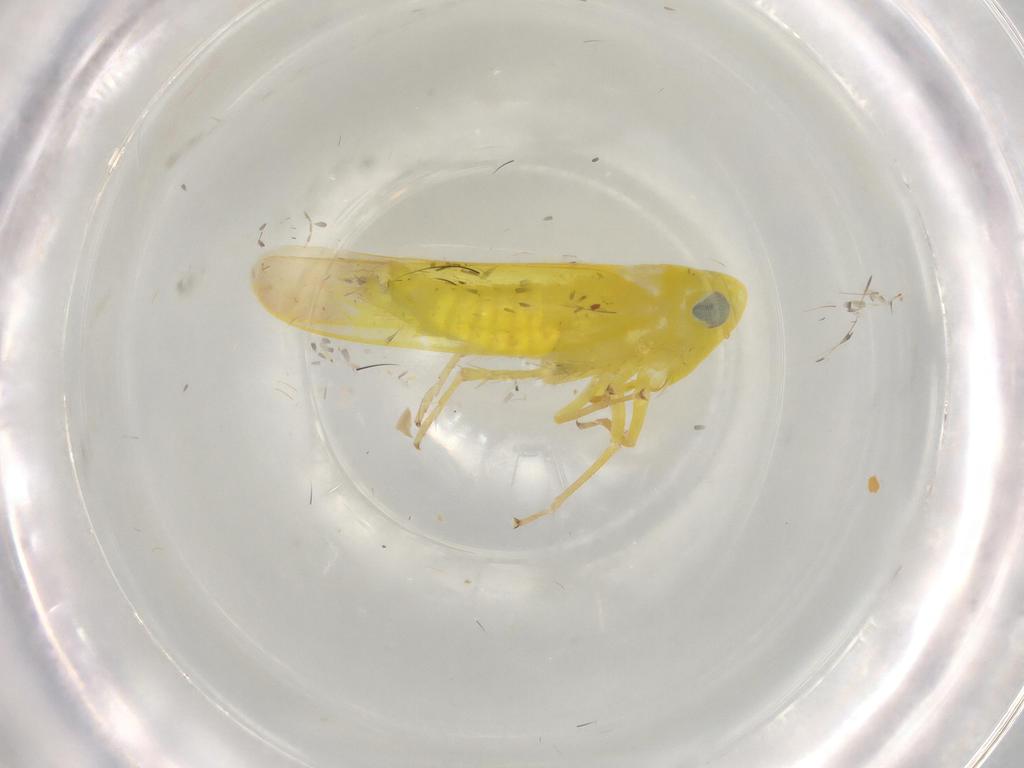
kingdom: Animalia
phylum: Arthropoda
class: Insecta
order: Hemiptera
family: Cicadellidae
